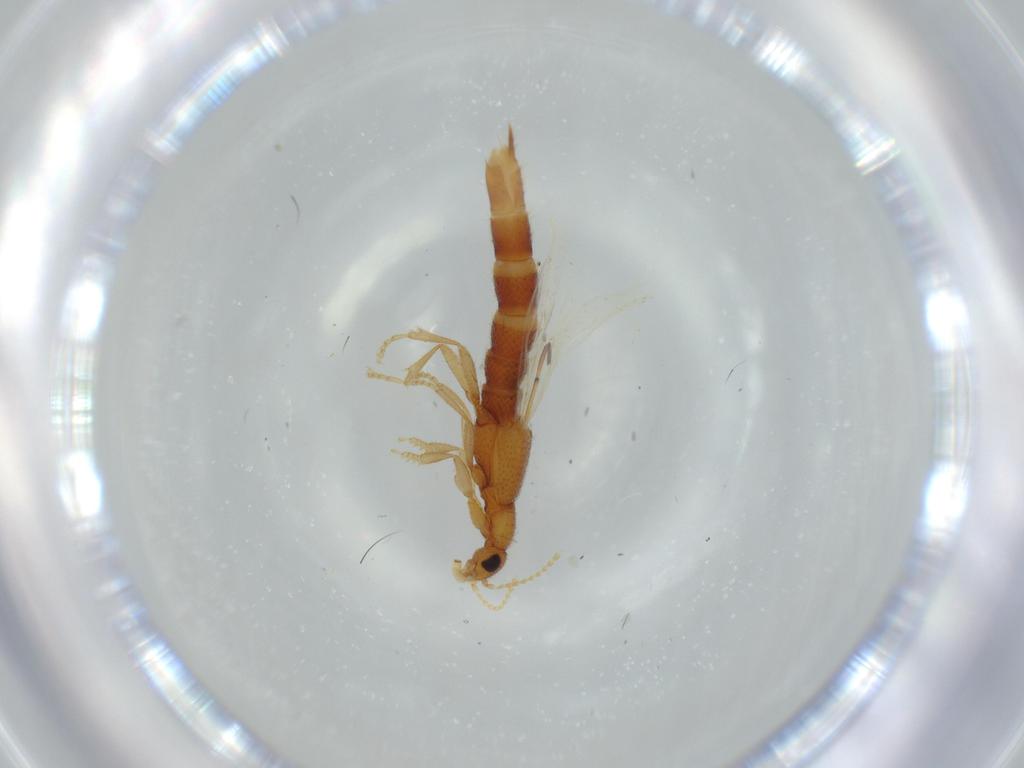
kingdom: Animalia
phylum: Arthropoda
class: Insecta
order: Coleoptera
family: Staphylinidae
